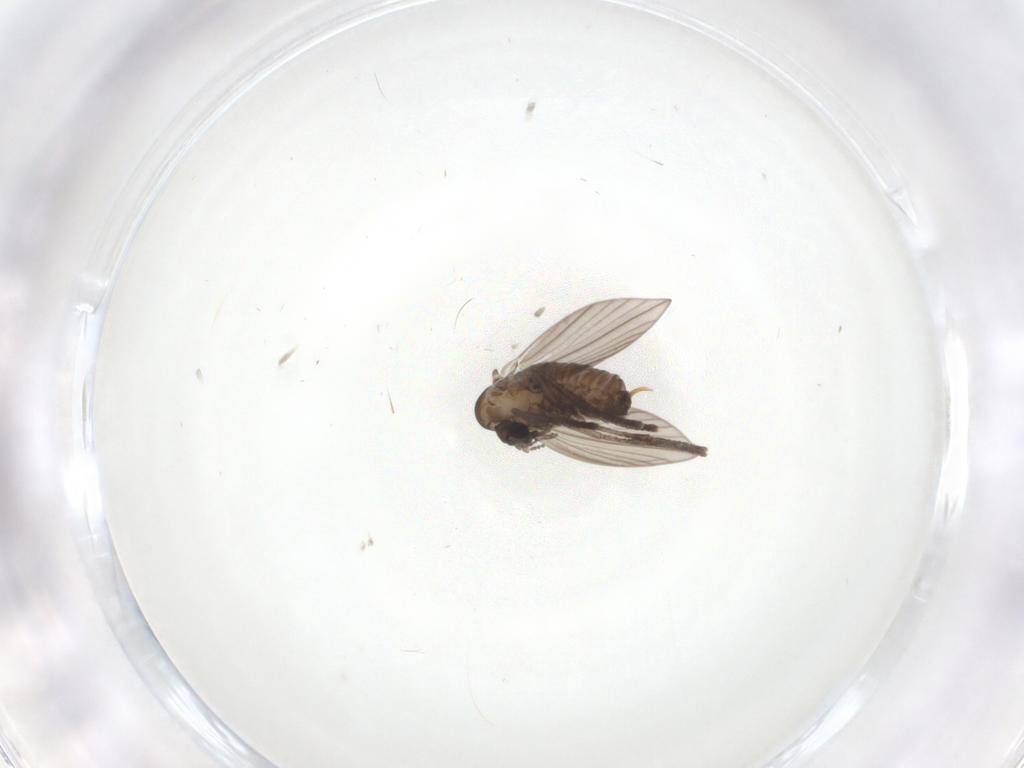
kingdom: Animalia
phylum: Arthropoda
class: Insecta
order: Diptera
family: Psychodidae
